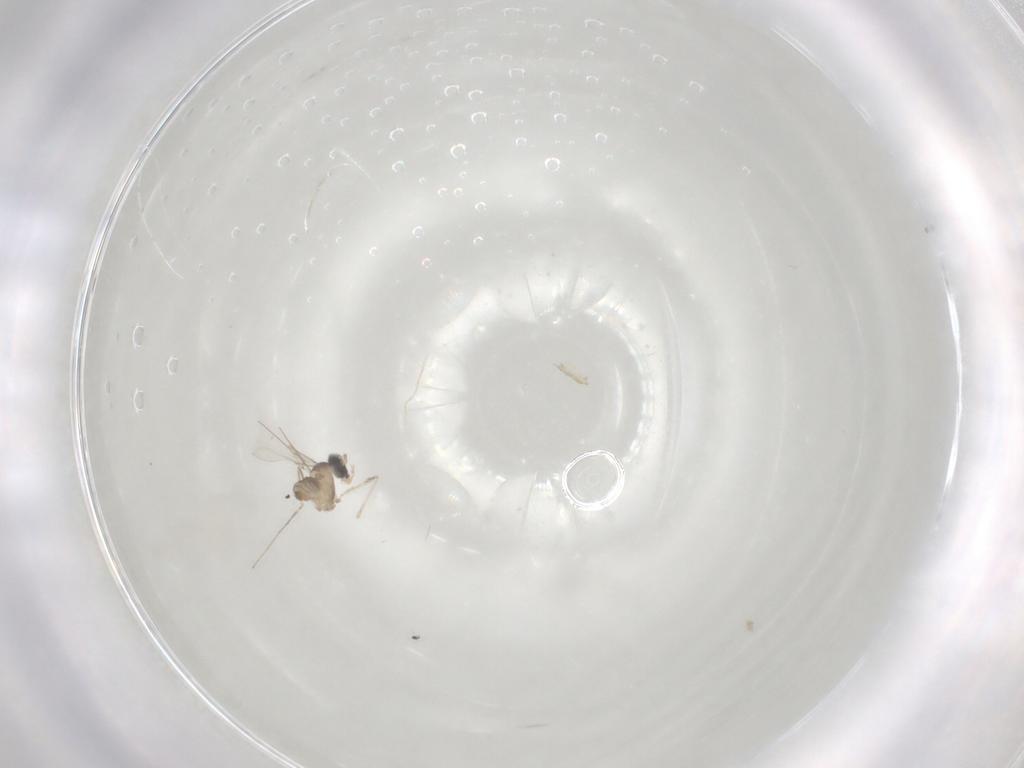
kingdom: Animalia
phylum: Arthropoda
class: Insecta
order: Diptera
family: Cecidomyiidae
